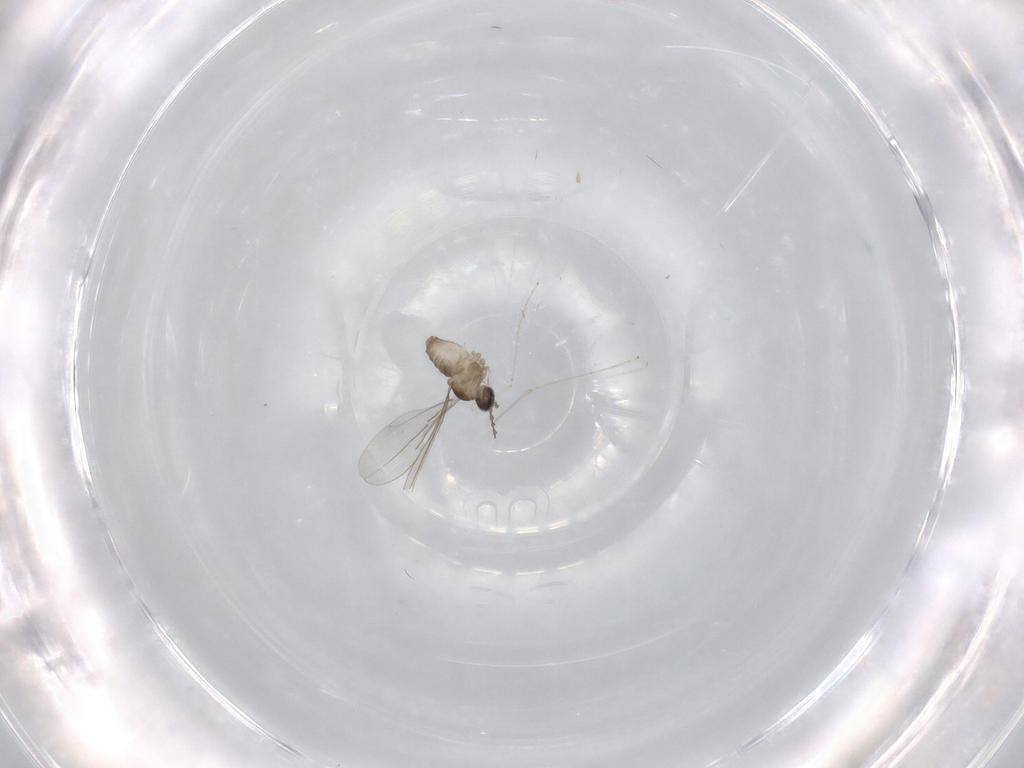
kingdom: Animalia
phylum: Arthropoda
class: Insecta
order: Diptera
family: Cecidomyiidae
